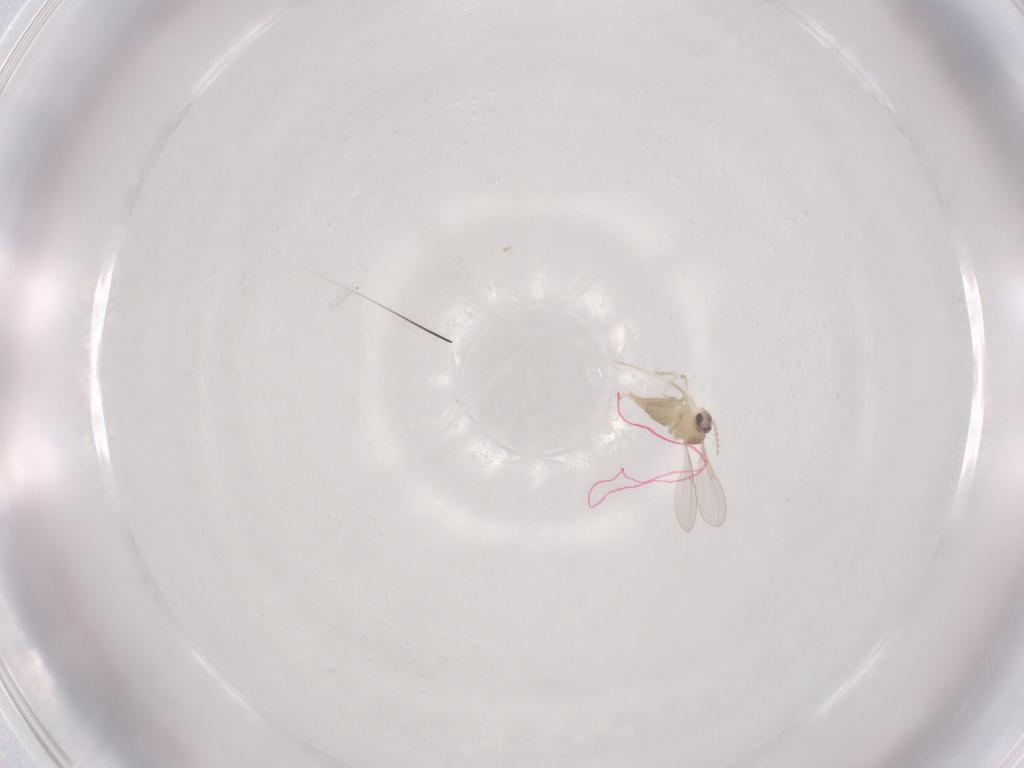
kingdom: Animalia
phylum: Arthropoda
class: Insecta
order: Diptera
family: Cecidomyiidae
